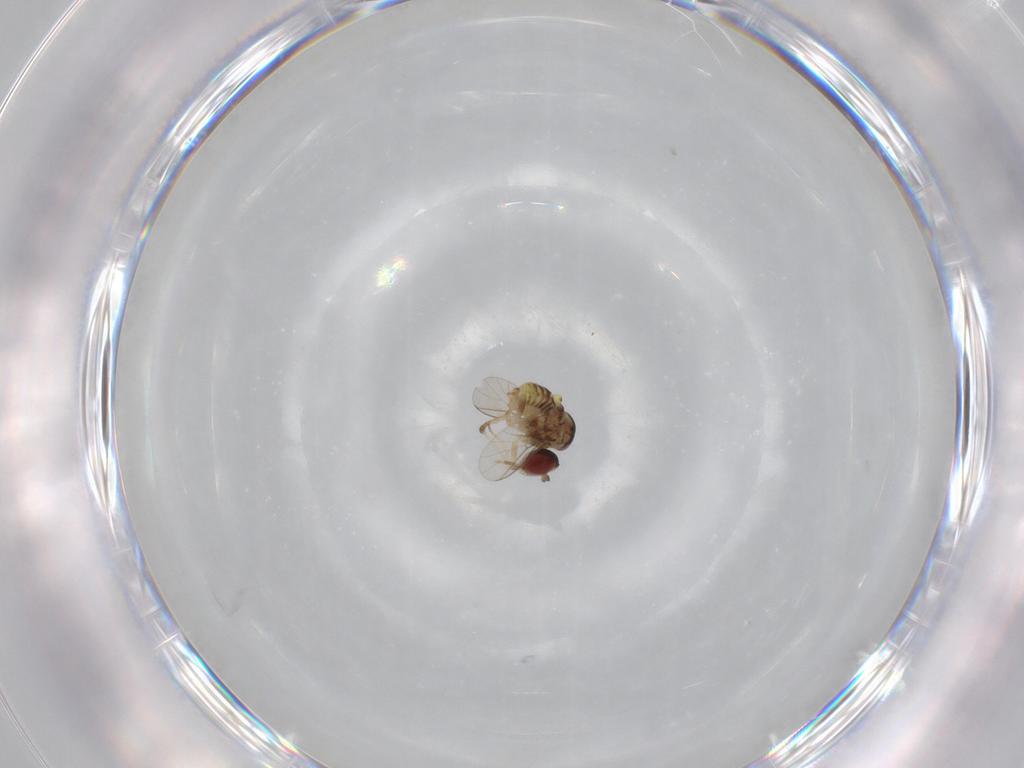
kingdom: Animalia
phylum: Arthropoda
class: Insecta
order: Diptera
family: Bombyliidae
